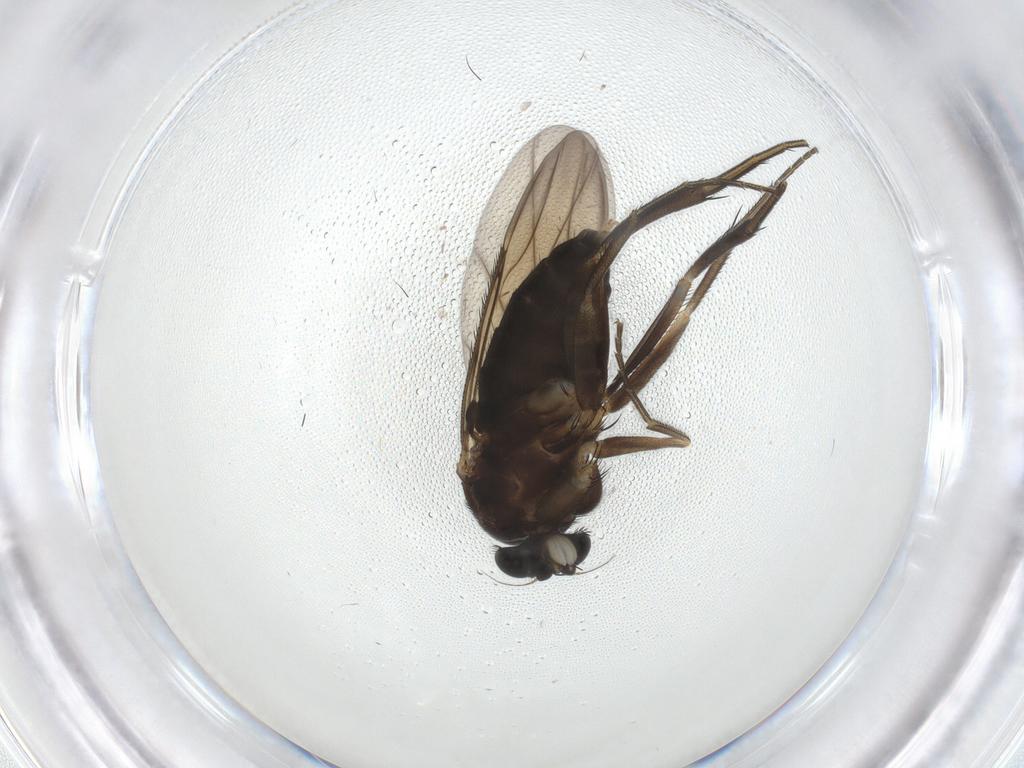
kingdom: Animalia
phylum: Arthropoda
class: Insecta
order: Diptera
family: Phoridae
